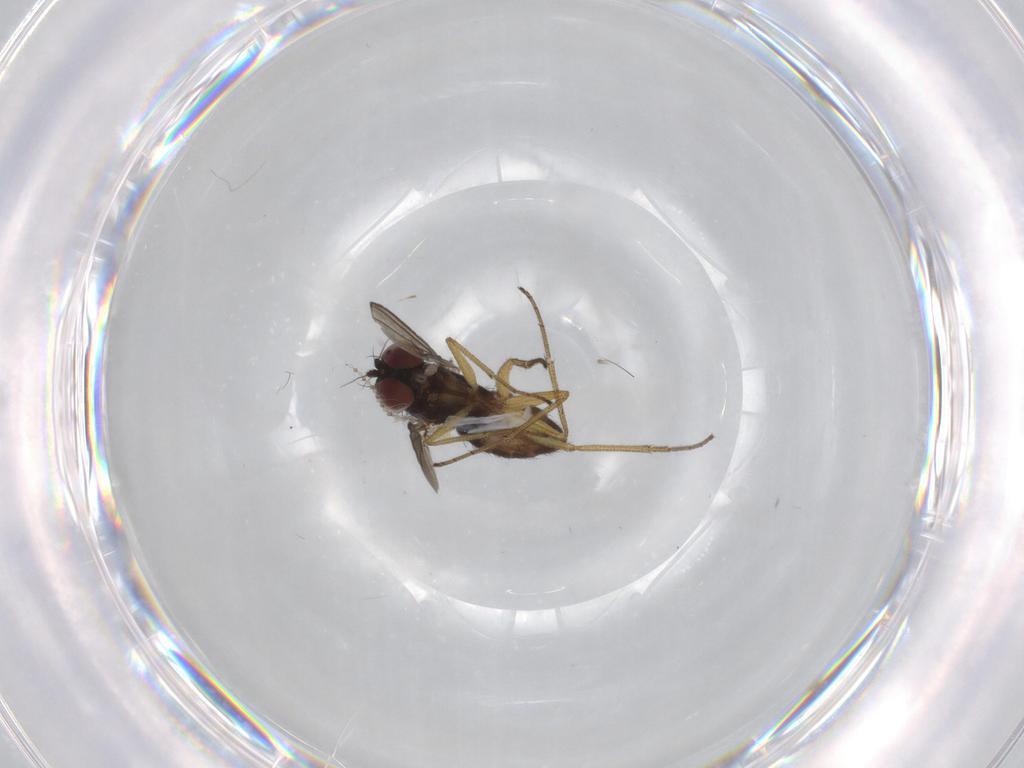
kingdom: Animalia
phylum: Arthropoda
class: Insecta
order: Diptera
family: Dolichopodidae
